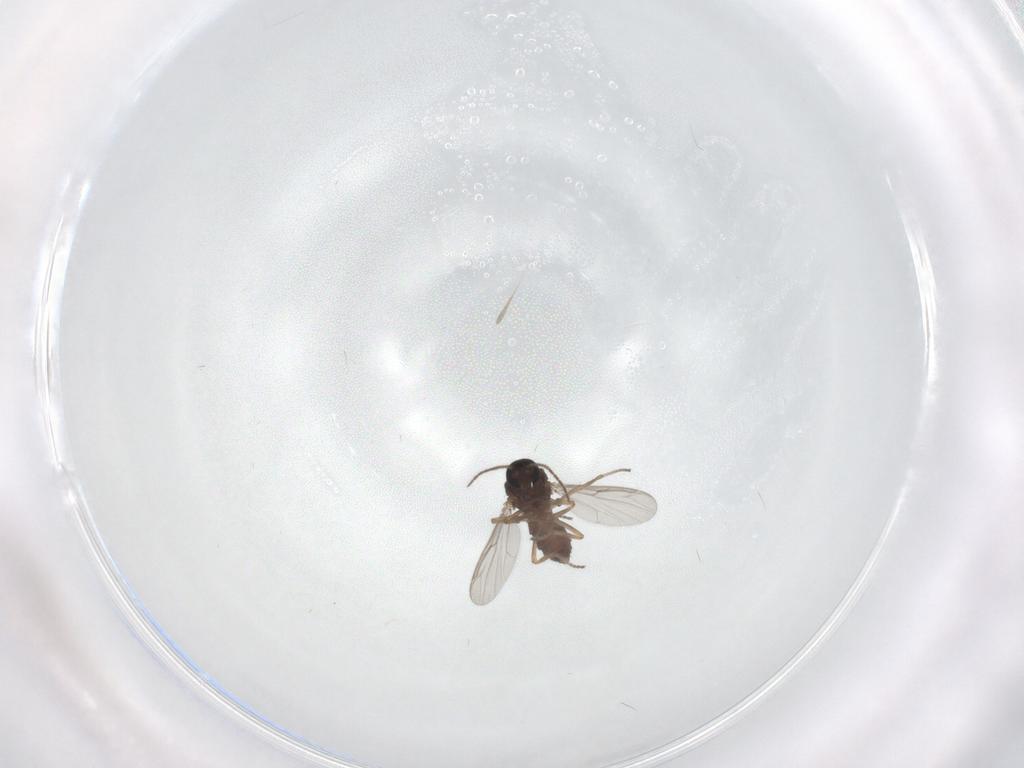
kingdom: Animalia
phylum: Arthropoda
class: Insecta
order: Diptera
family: Ceratopogonidae
